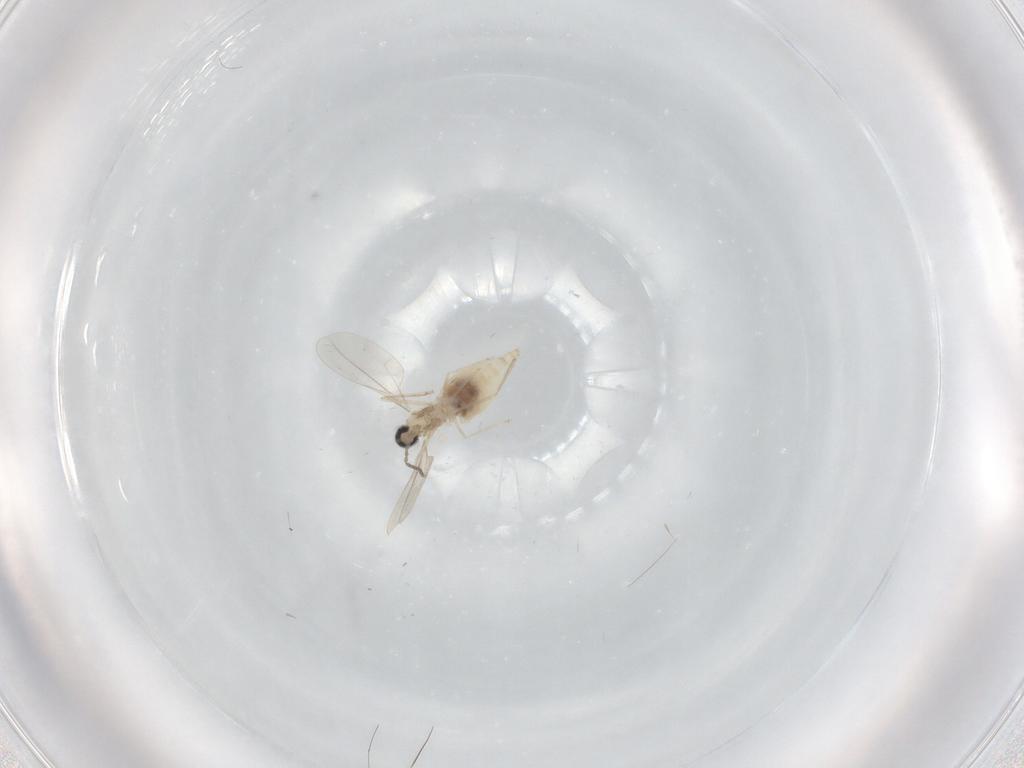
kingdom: Animalia
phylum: Arthropoda
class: Insecta
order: Diptera
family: Cecidomyiidae
